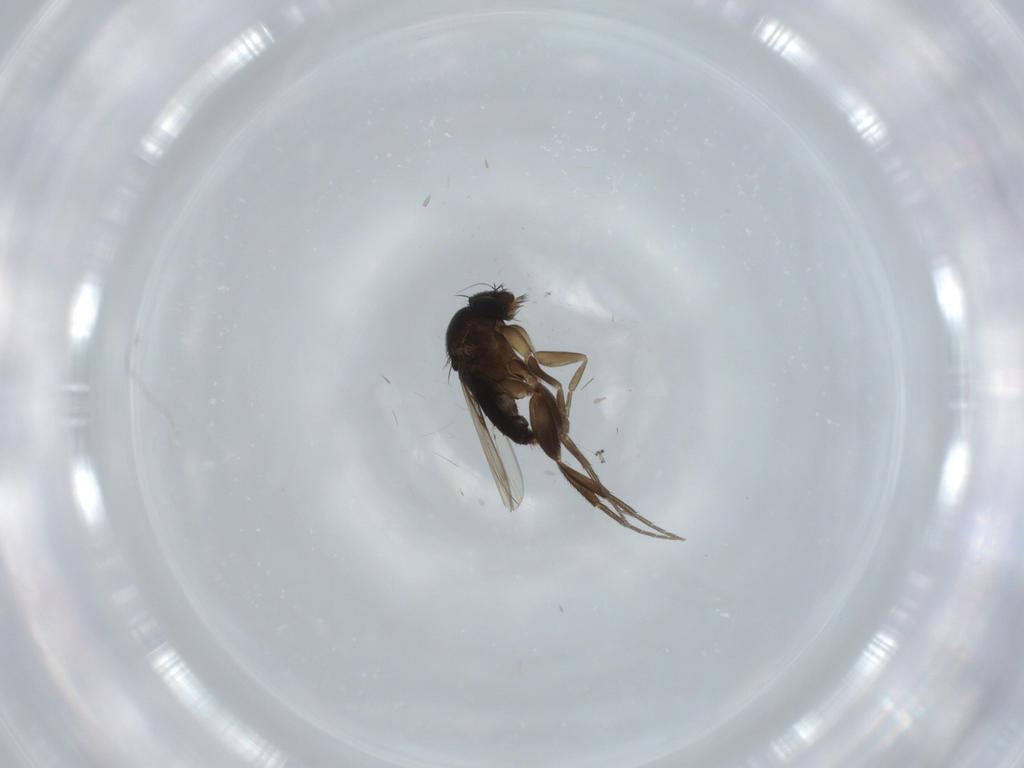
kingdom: Animalia
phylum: Arthropoda
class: Insecta
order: Diptera
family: Phoridae
